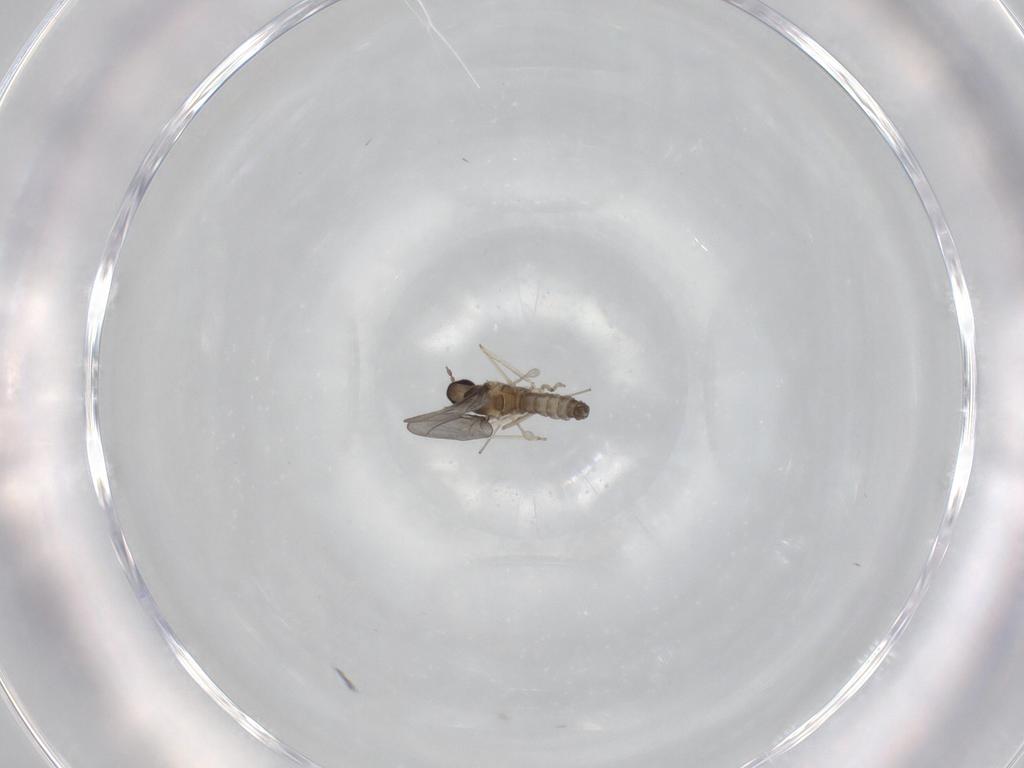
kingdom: Animalia
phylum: Arthropoda
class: Insecta
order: Diptera
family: Cecidomyiidae
